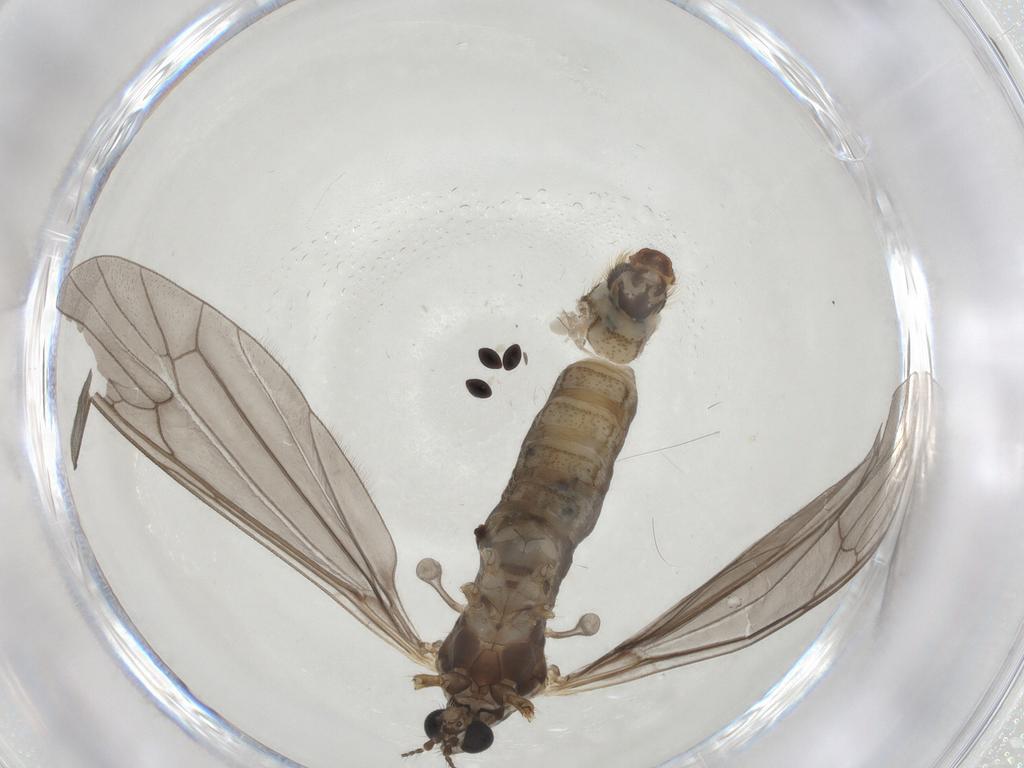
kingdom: Animalia
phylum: Arthropoda
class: Insecta
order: Diptera
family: Limoniidae
